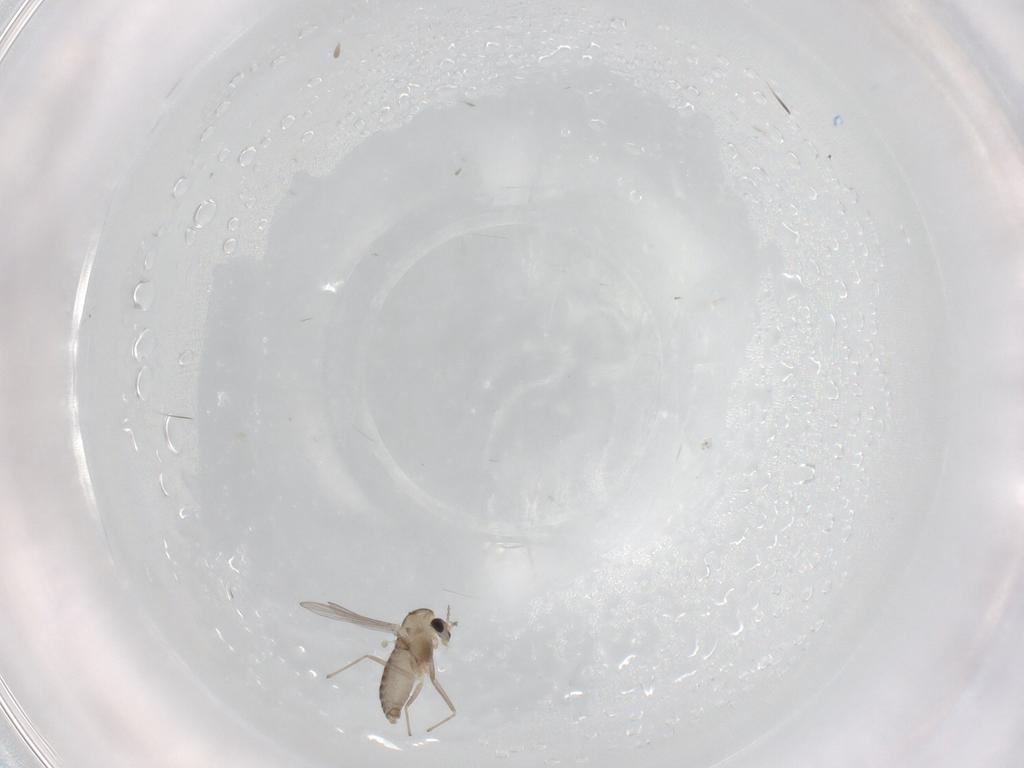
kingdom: Animalia
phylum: Arthropoda
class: Insecta
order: Diptera
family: Chironomidae
